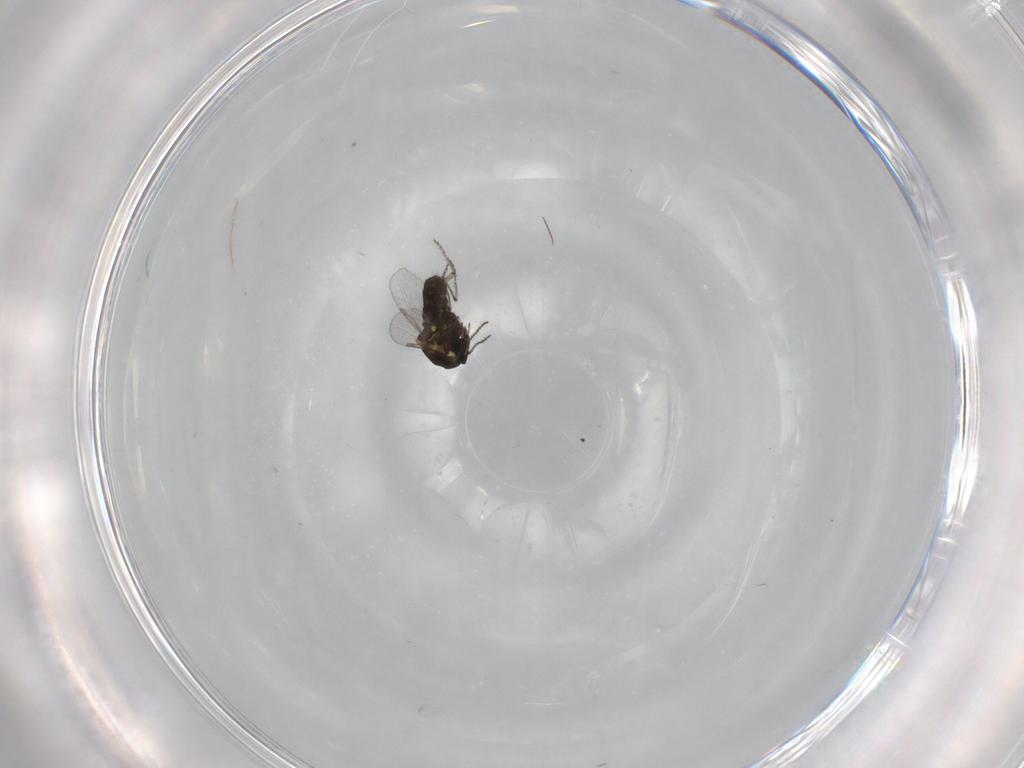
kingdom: Animalia
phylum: Arthropoda
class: Insecta
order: Diptera
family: Ceratopogonidae
